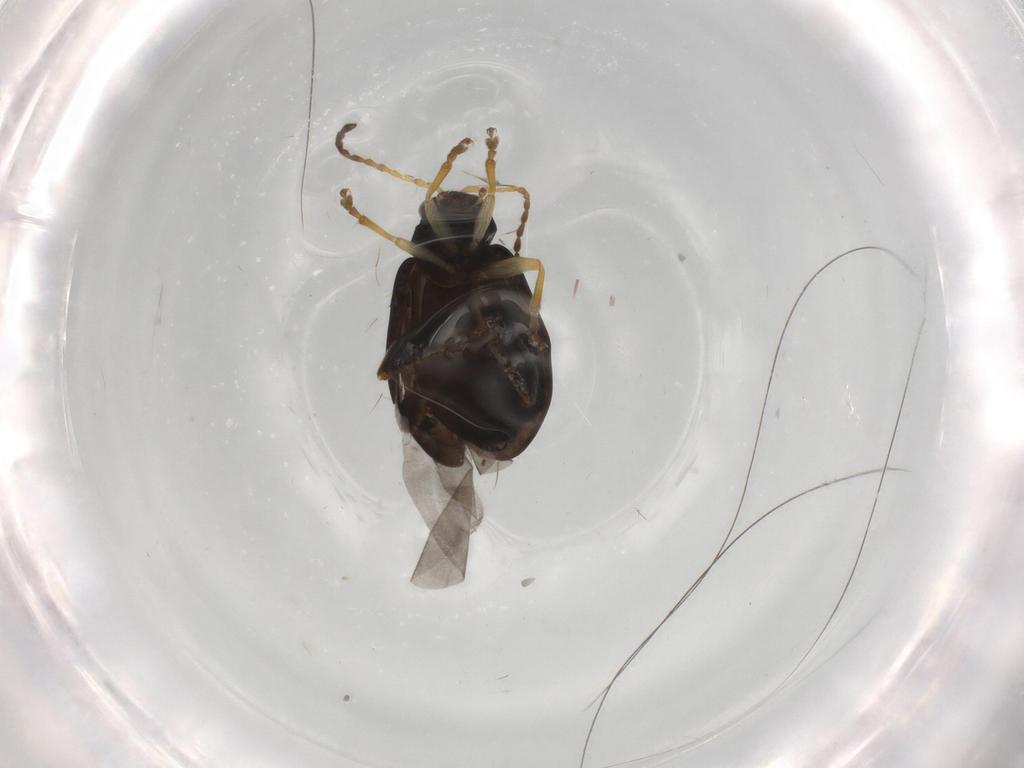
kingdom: Animalia
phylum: Arthropoda
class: Insecta
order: Coleoptera
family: Chrysomelidae
